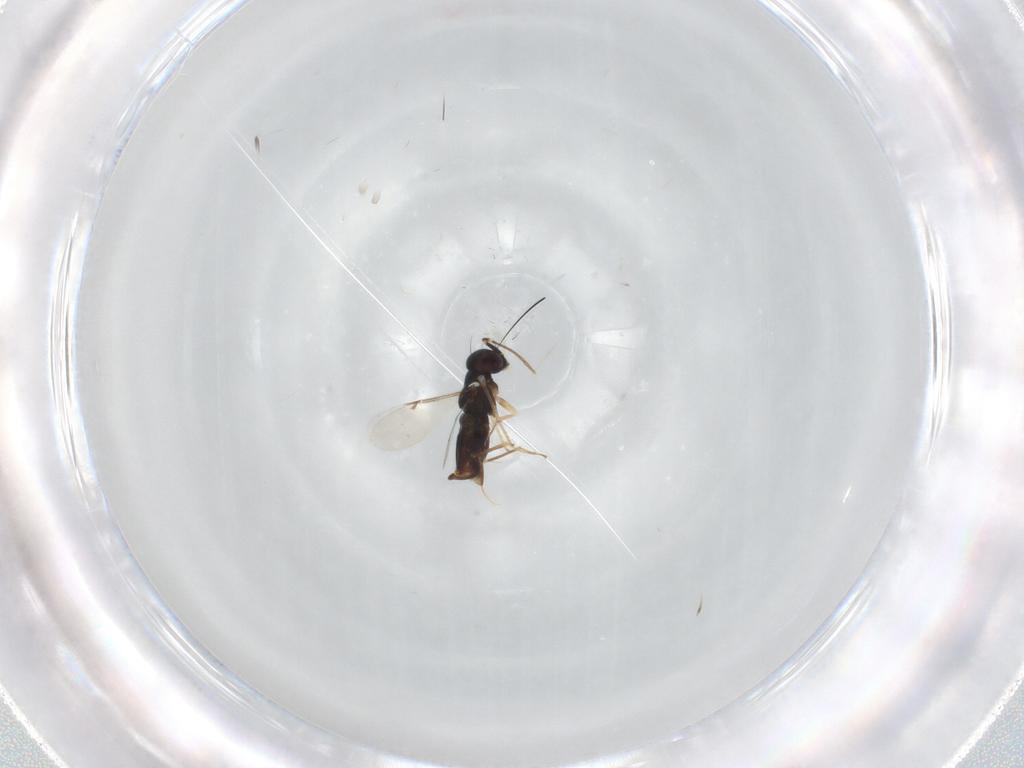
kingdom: Animalia
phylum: Arthropoda
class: Insecta
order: Hymenoptera
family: Encyrtidae
